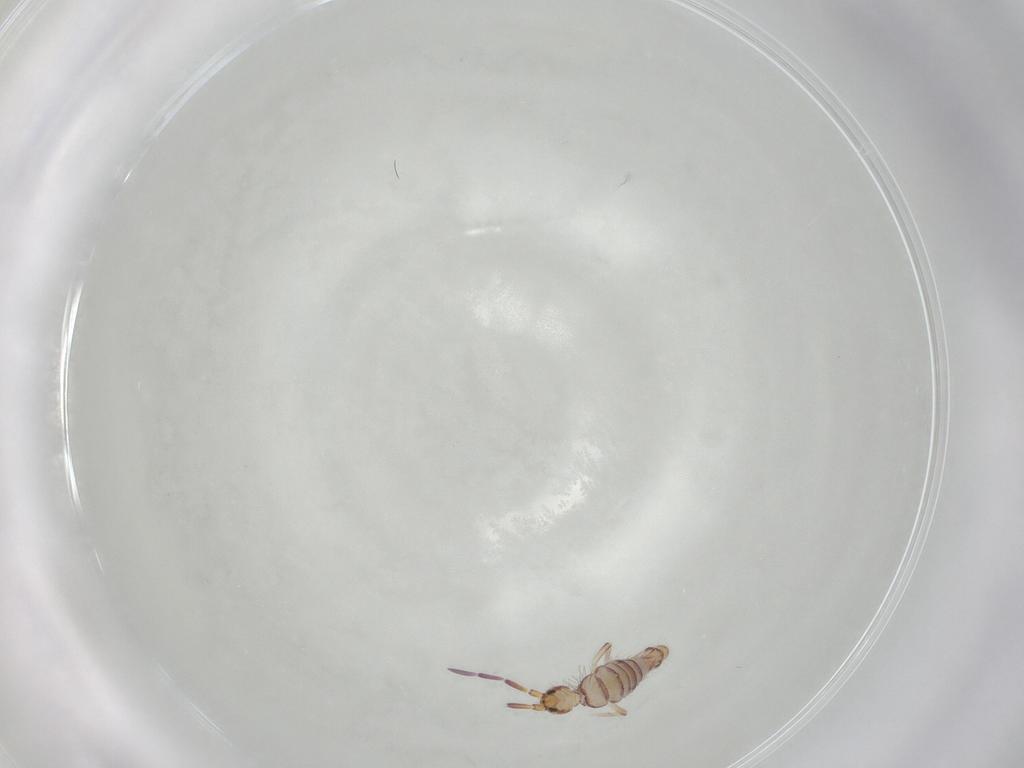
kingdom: Animalia
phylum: Arthropoda
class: Collembola
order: Entomobryomorpha
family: Entomobryidae
